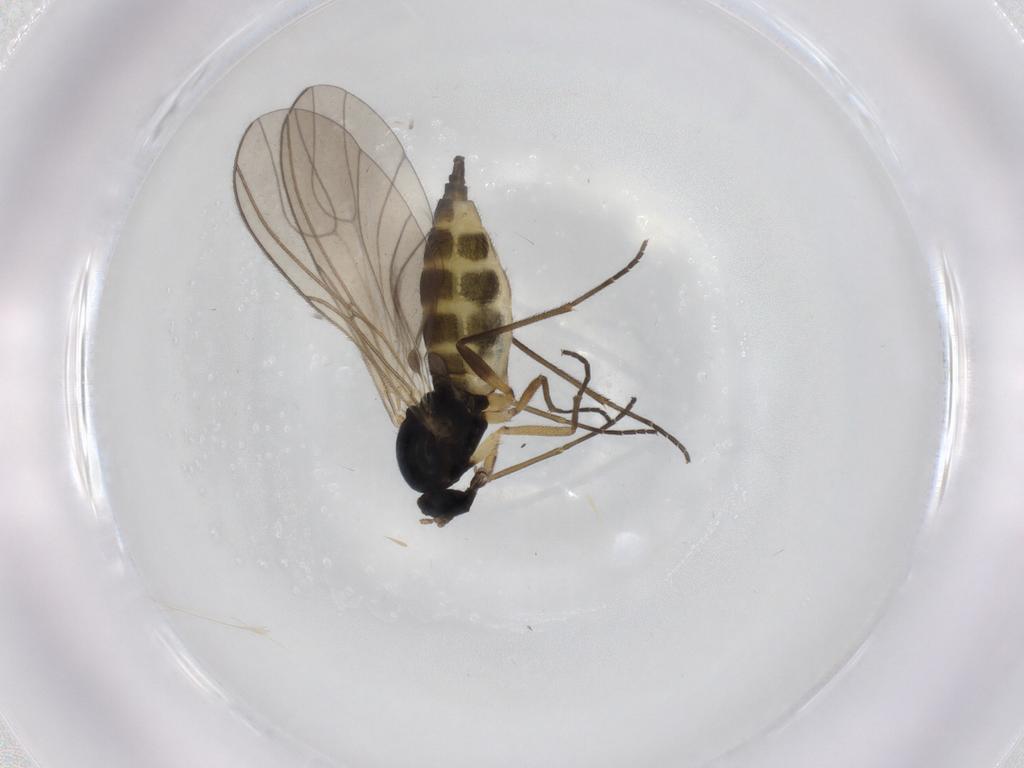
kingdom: Animalia
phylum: Arthropoda
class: Insecta
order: Diptera
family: Sciaridae
